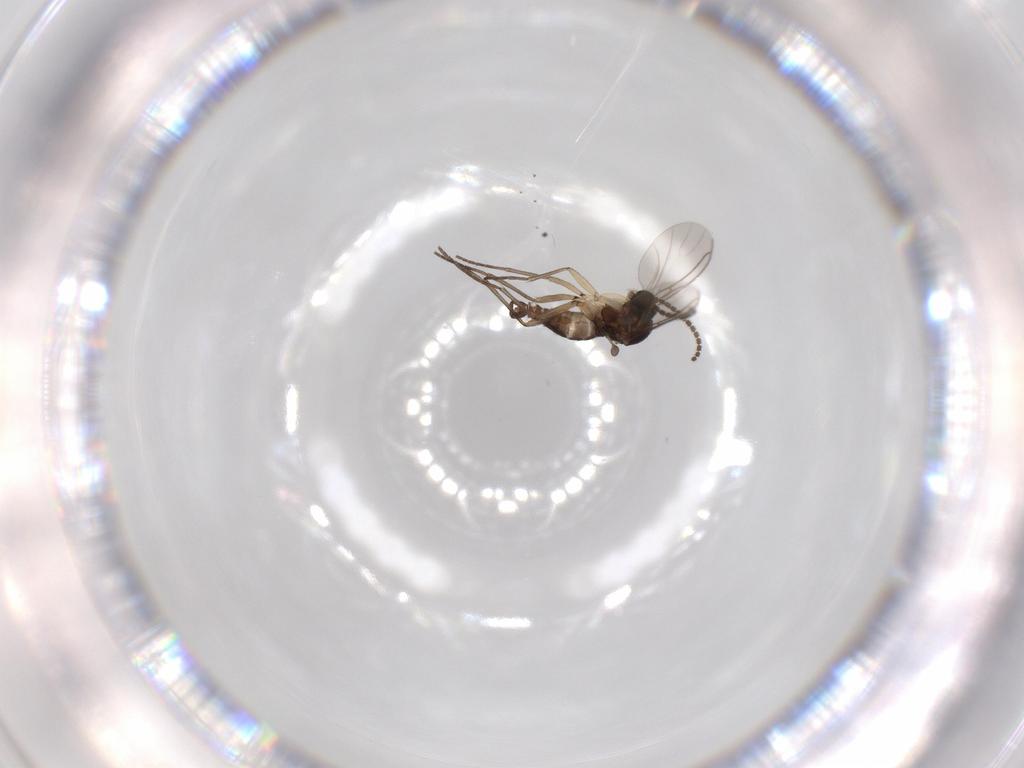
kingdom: Animalia
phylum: Arthropoda
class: Insecta
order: Diptera
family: Sciaridae
